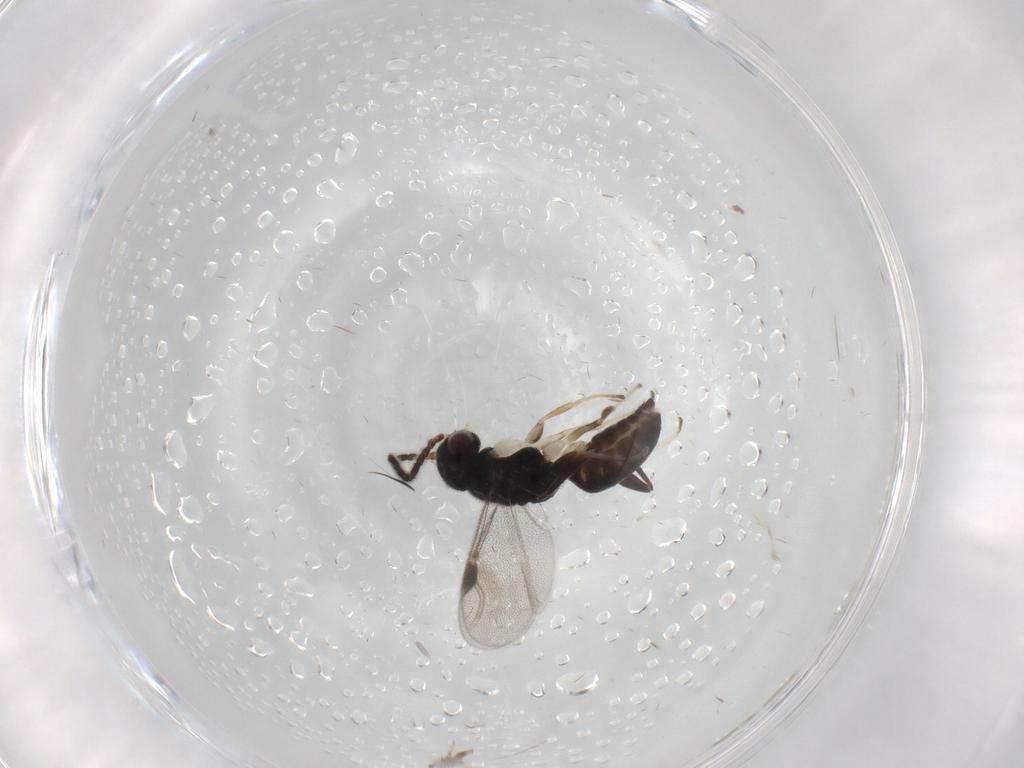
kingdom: Animalia
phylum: Arthropoda
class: Insecta
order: Hymenoptera
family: Dryinidae
